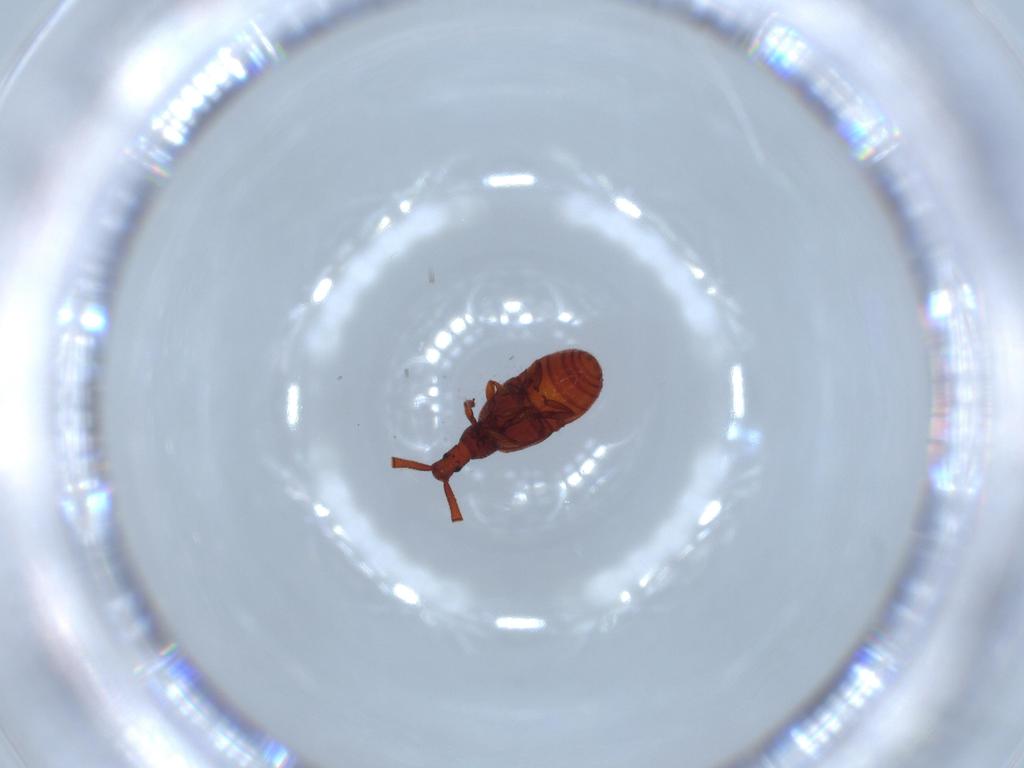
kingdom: Animalia
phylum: Arthropoda
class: Insecta
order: Coleoptera
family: Staphylinidae
